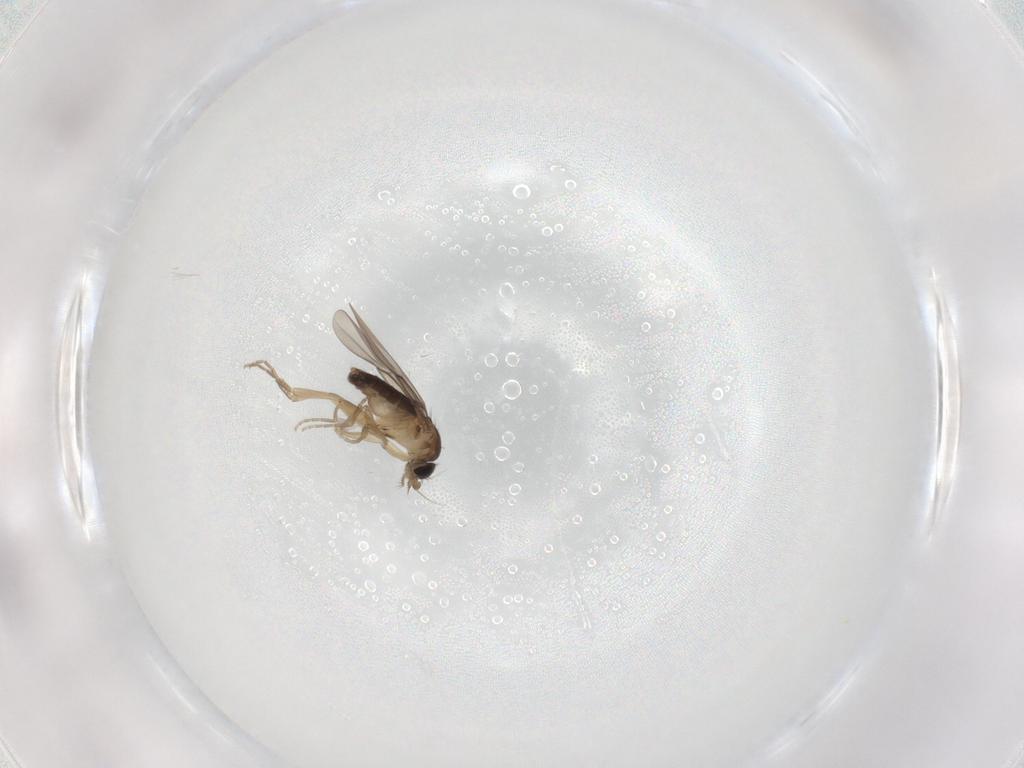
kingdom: Animalia
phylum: Arthropoda
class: Insecta
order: Diptera
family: Phoridae
